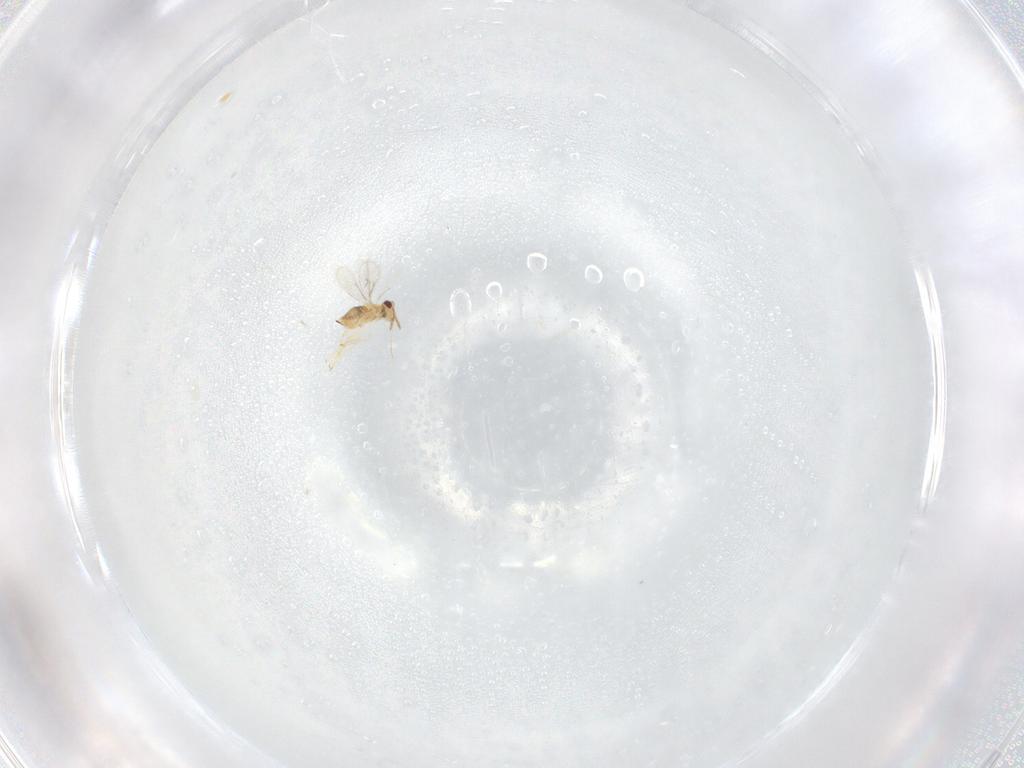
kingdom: Animalia
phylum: Arthropoda
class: Insecta
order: Hymenoptera
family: Aphelinidae
